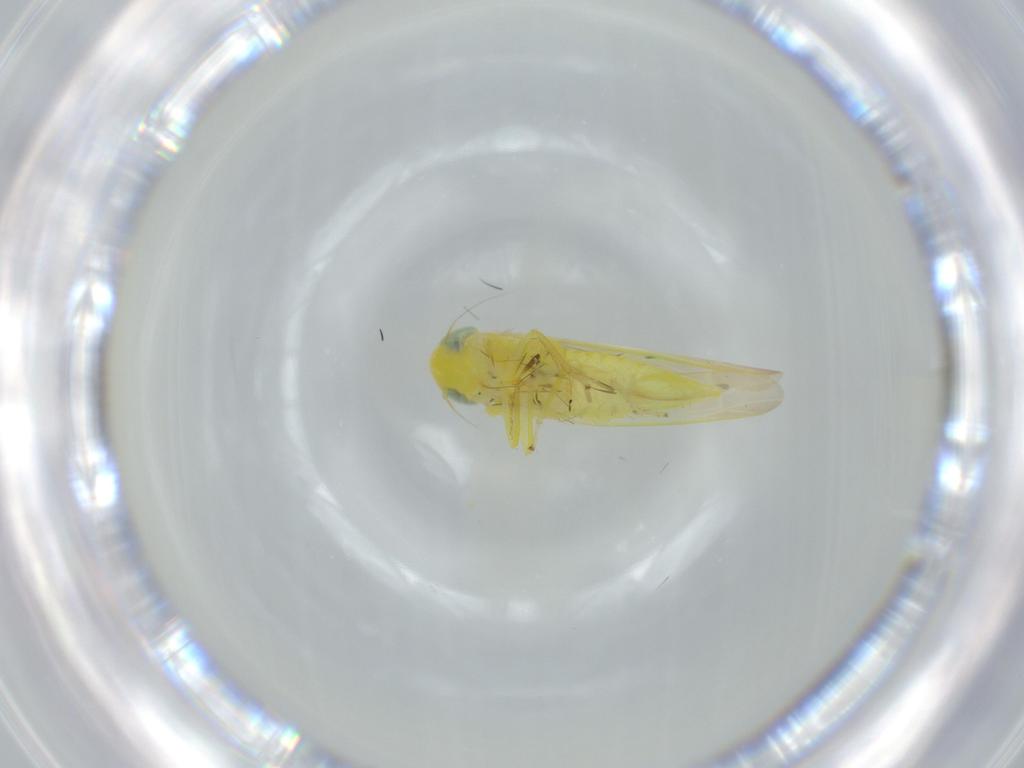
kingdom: Animalia
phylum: Arthropoda
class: Insecta
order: Hemiptera
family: Cicadellidae
